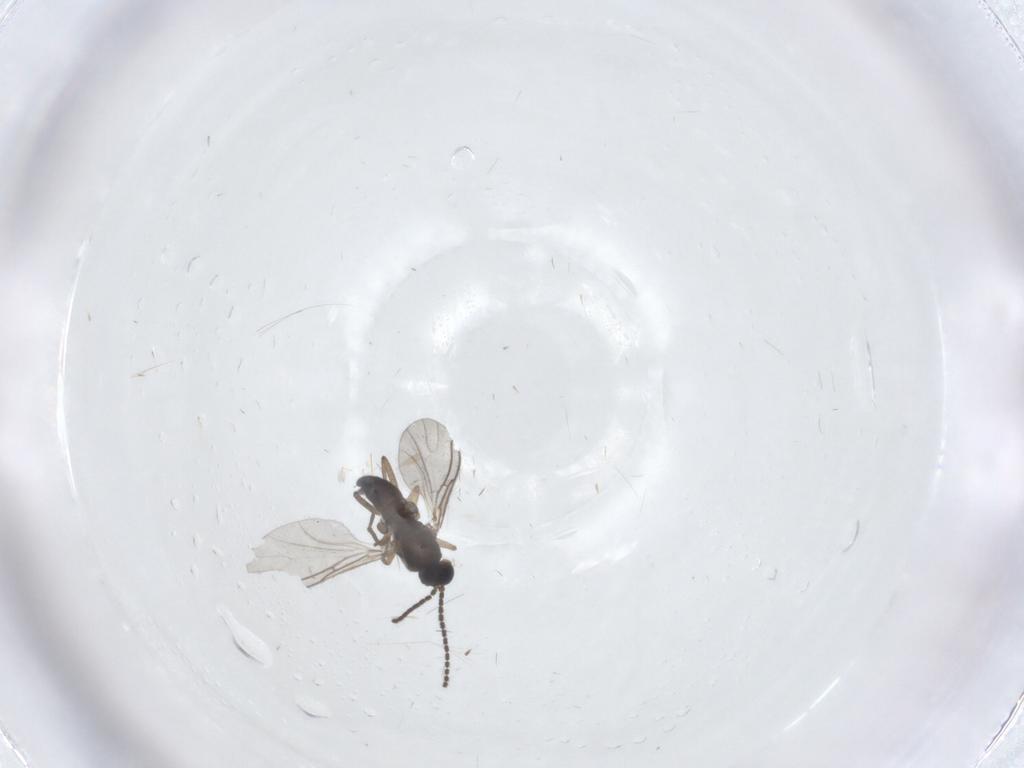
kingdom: Animalia
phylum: Arthropoda
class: Insecta
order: Diptera
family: Sciaridae
